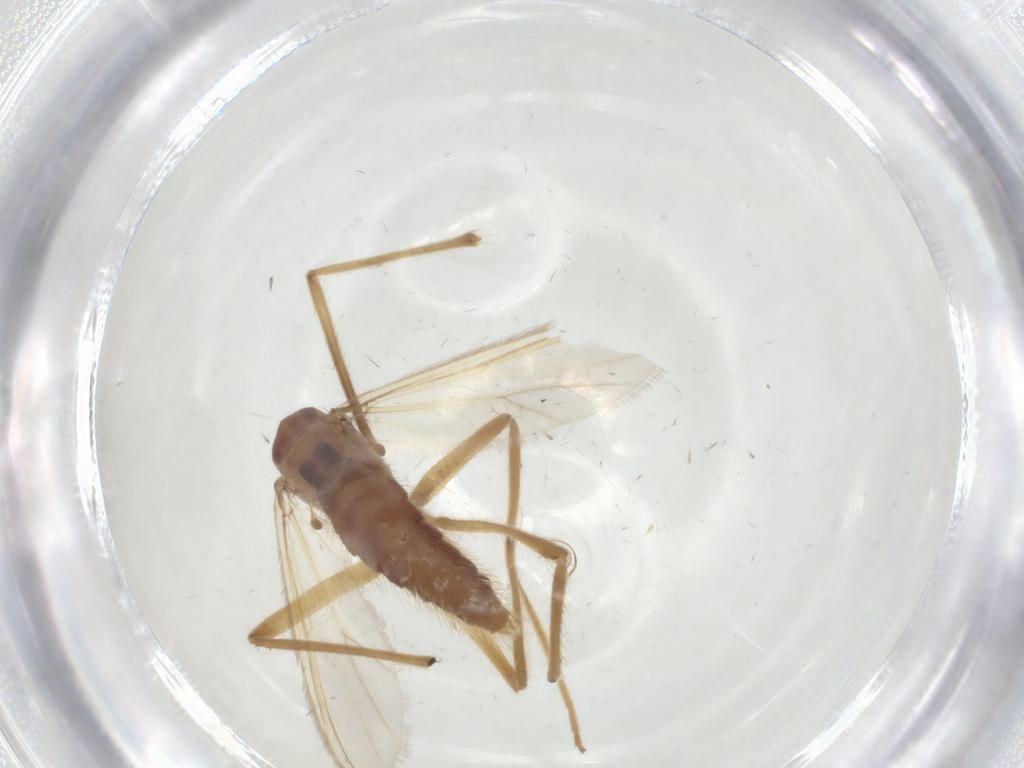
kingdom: Animalia
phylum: Arthropoda
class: Insecta
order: Diptera
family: Chironomidae
